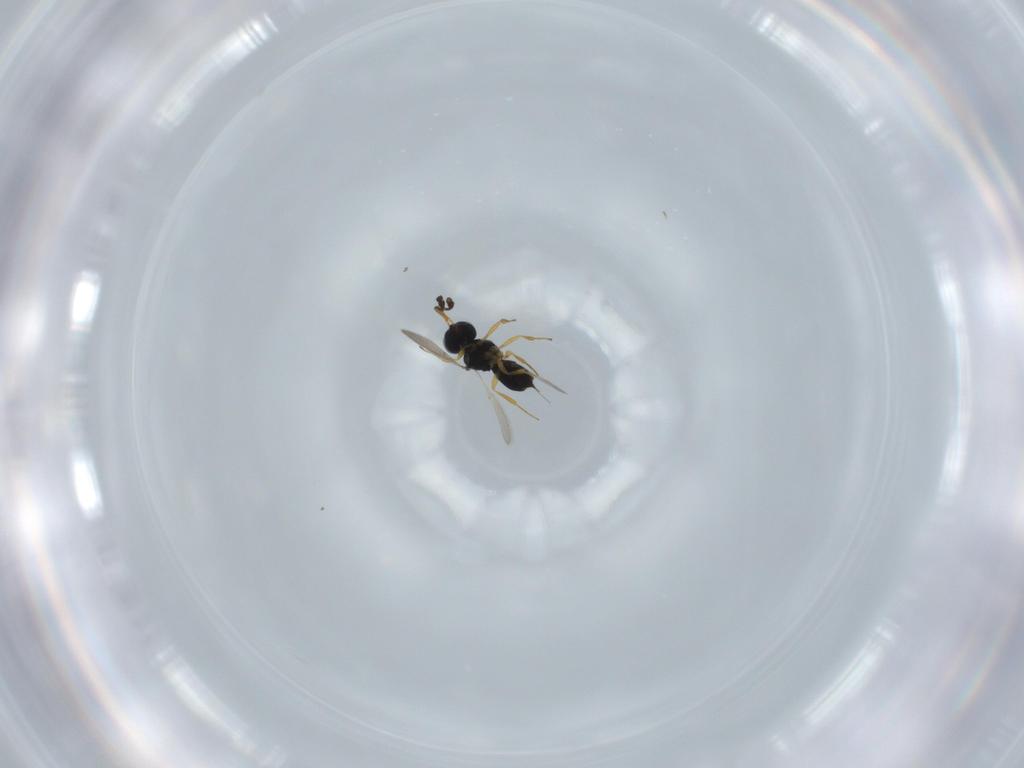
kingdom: Animalia
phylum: Arthropoda
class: Insecta
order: Hymenoptera
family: Scelionidae
